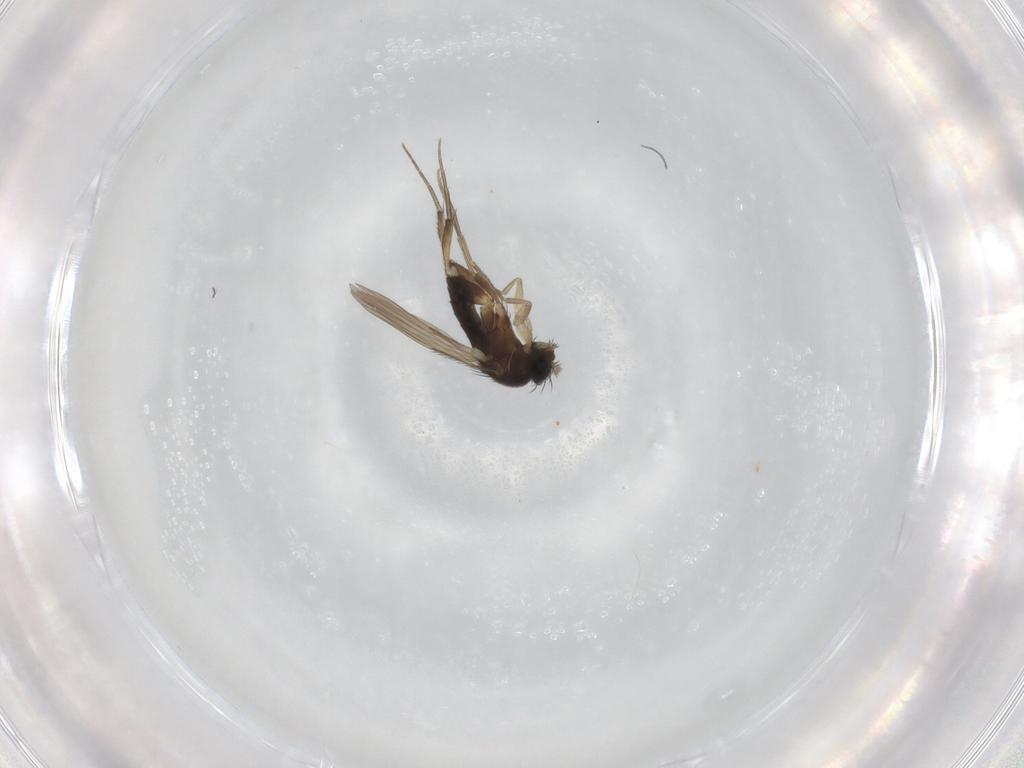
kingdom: Animalia
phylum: Arthropoda
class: Insecta
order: Diptera
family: Phoridae
